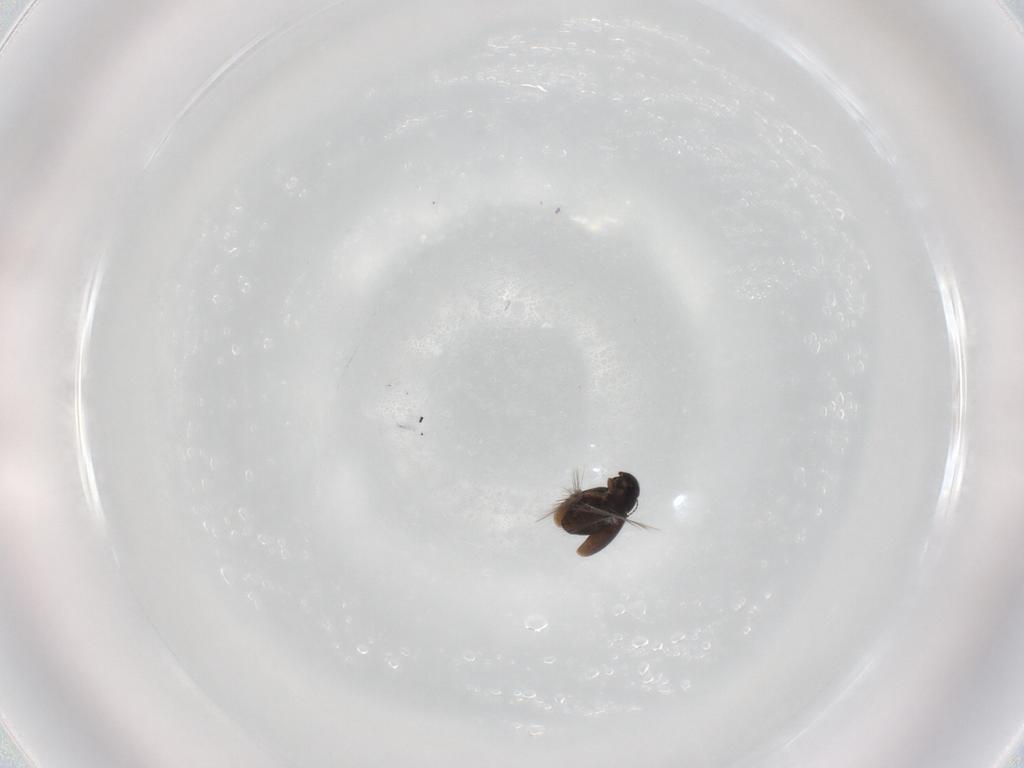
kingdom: Animalia
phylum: Arthropoda
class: Insecta
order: Coleoptera
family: Ptiliidae
